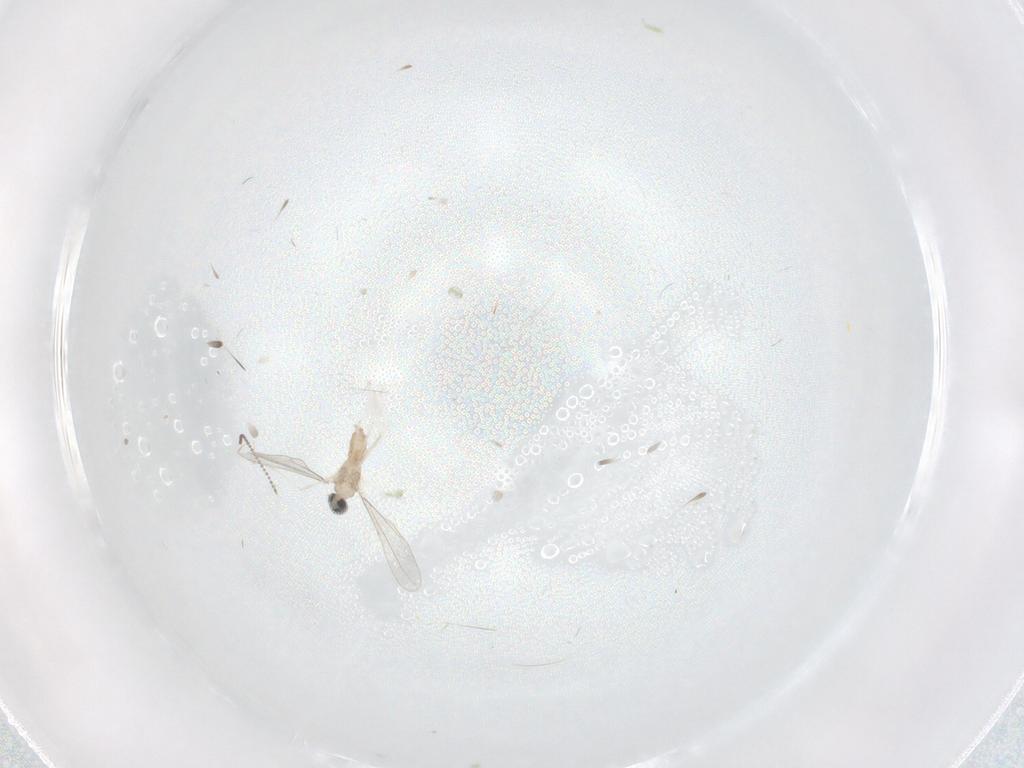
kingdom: Animalia
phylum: Arthropoda
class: Insecta
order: Diptera
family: Cecidomyiidae
